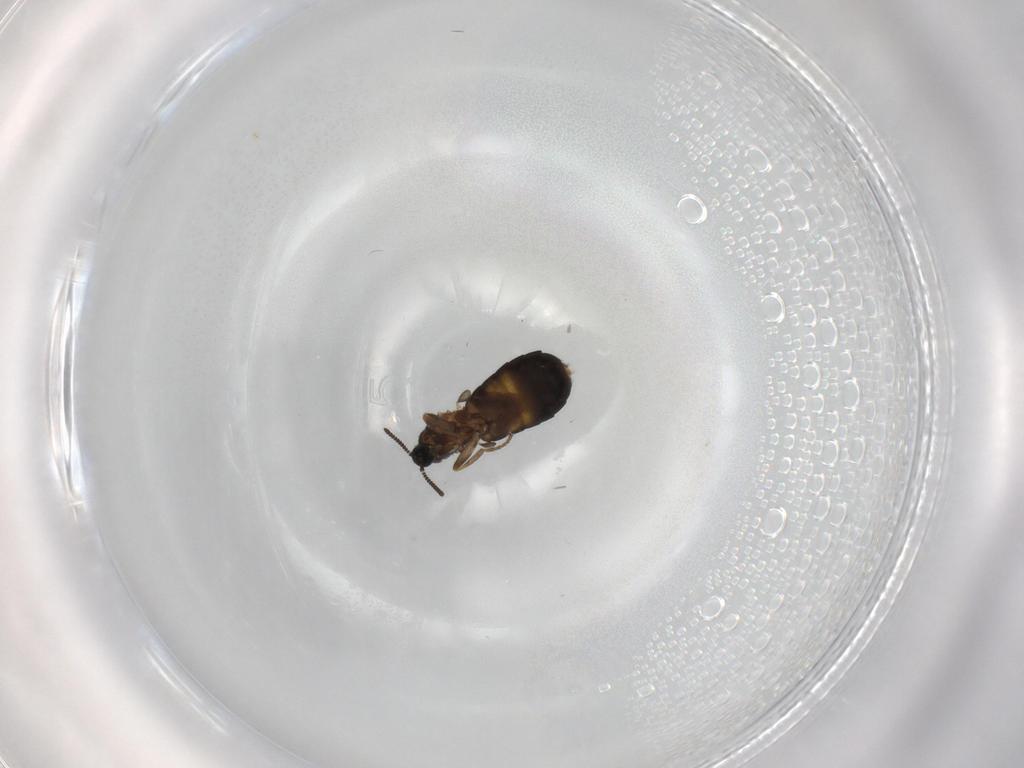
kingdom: Animalia
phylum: Arthropoda
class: Insecta
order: Diptera
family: Scatopsidae
